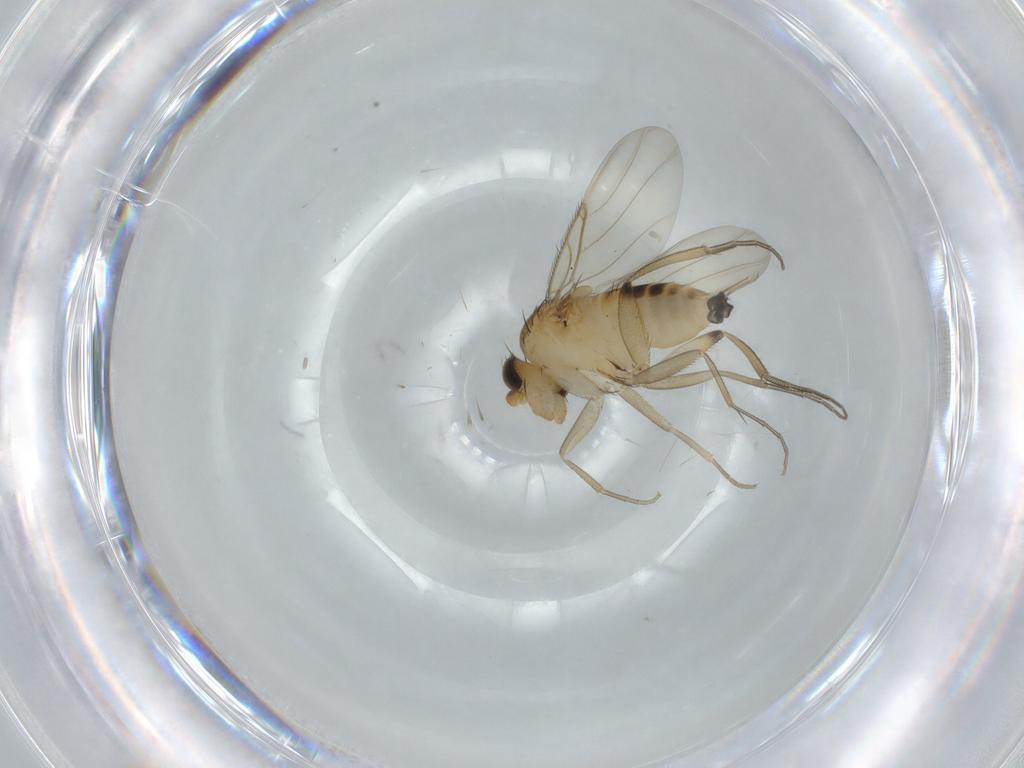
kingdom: Animalia
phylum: Arthropoda
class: Insecta
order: Diptera
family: Phoridae
